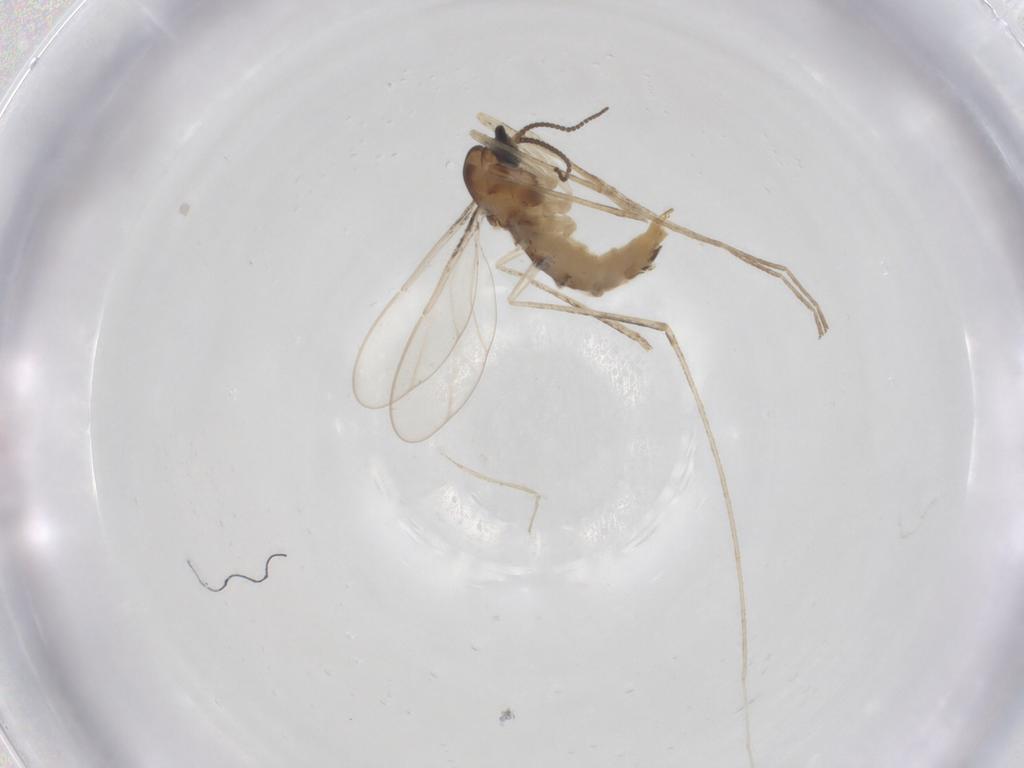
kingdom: Animalia
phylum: Arthropoda
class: Insecta
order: Diptera
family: Cecidomyiidae
